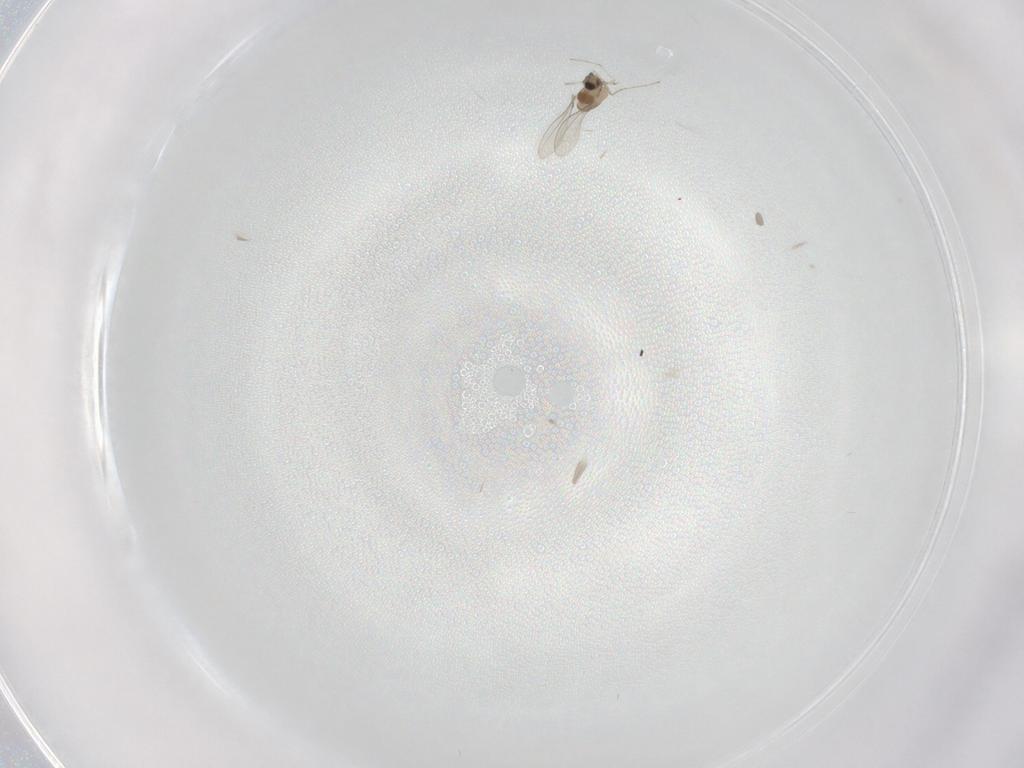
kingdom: Animalia
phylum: Arthropoda
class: Insecta
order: Diptera
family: Cecidomyiidae
